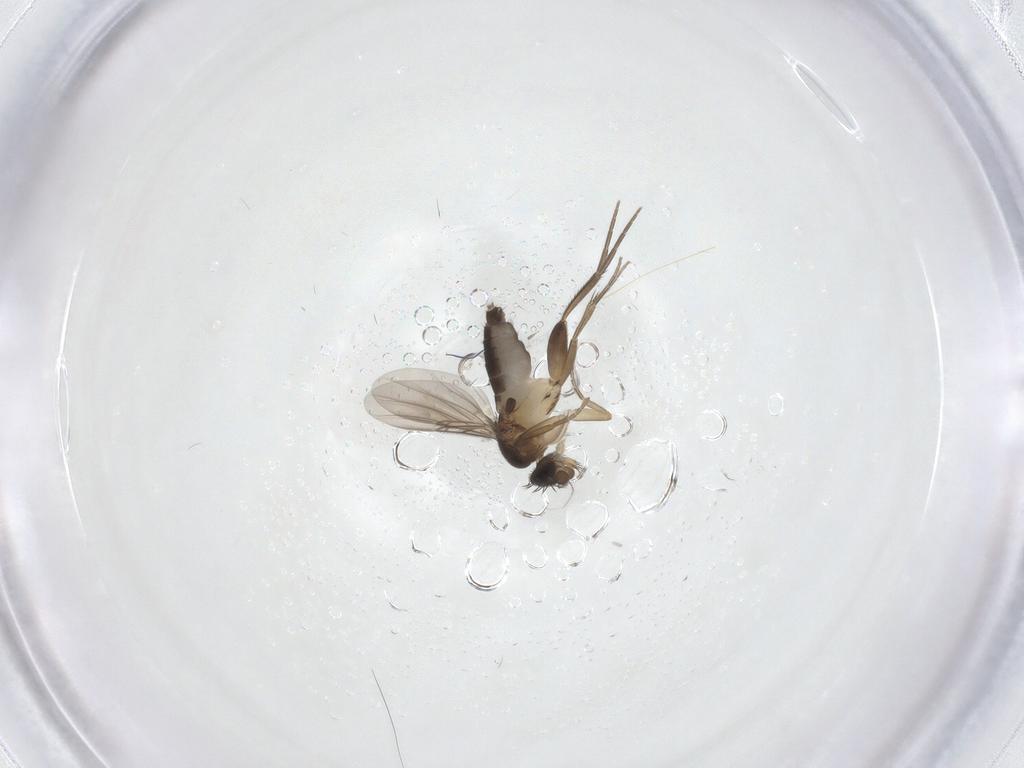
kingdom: Animalia
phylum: Arthropoda
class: Insecta
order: Diptera
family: Phoridae
